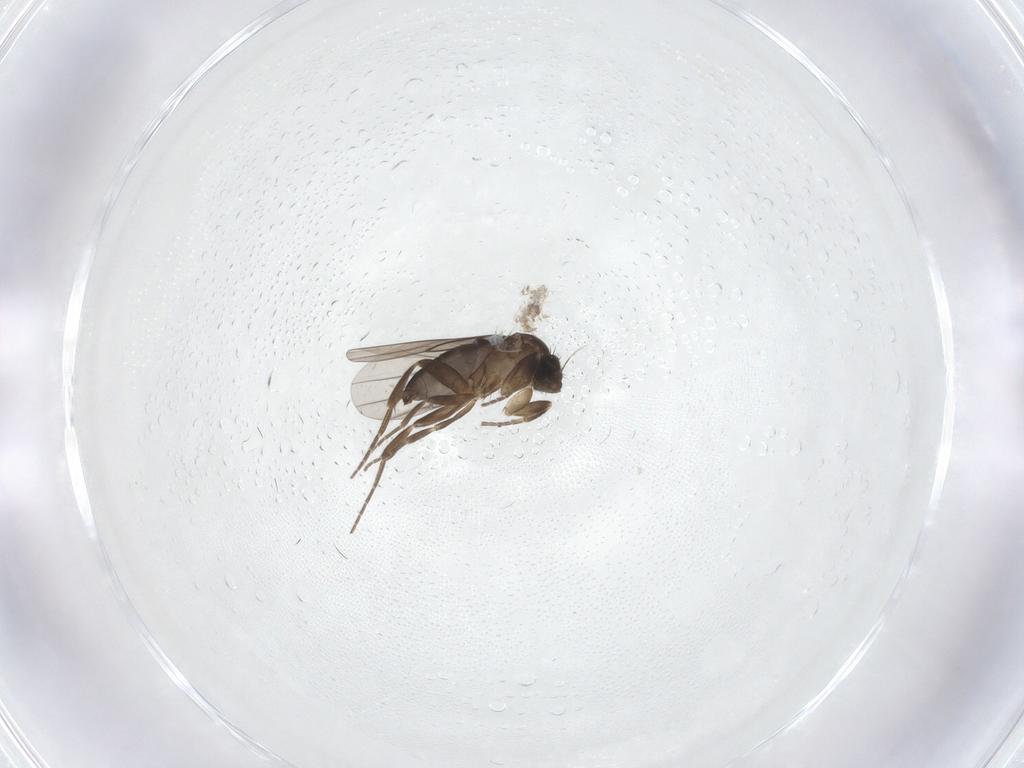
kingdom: Animalia
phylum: Arthropoda
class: Insecta
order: Diptera
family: Phoridae
